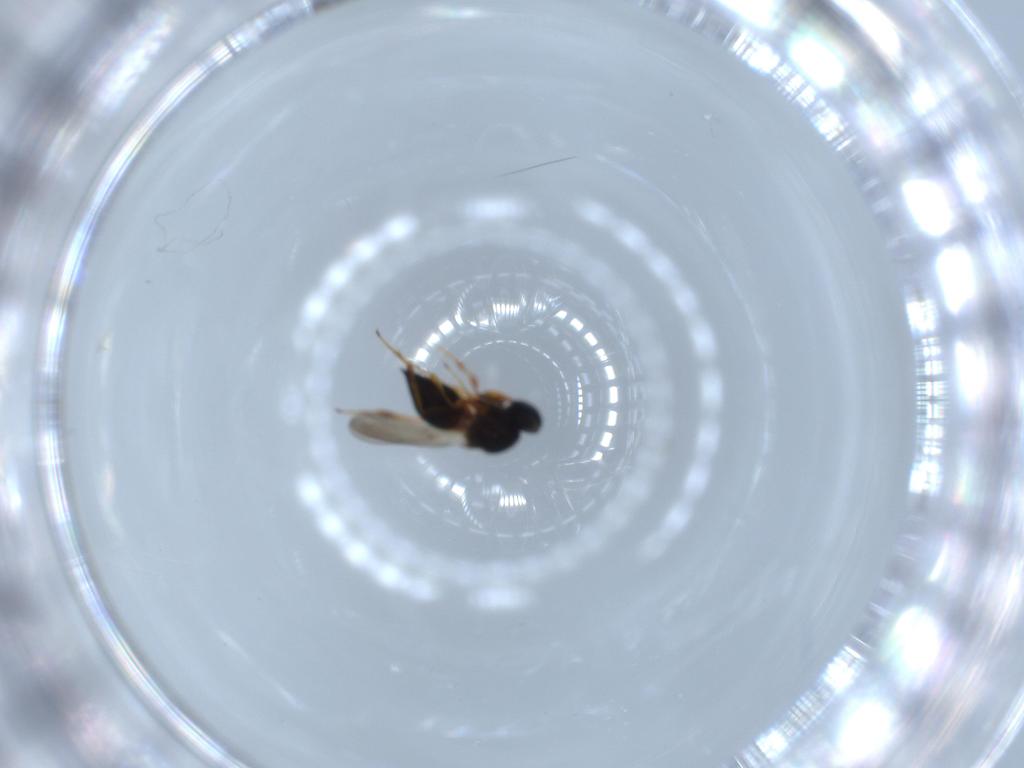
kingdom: Animalia
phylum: Arthropoda
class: Insecta
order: Hymenoptera
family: Platygastridae
